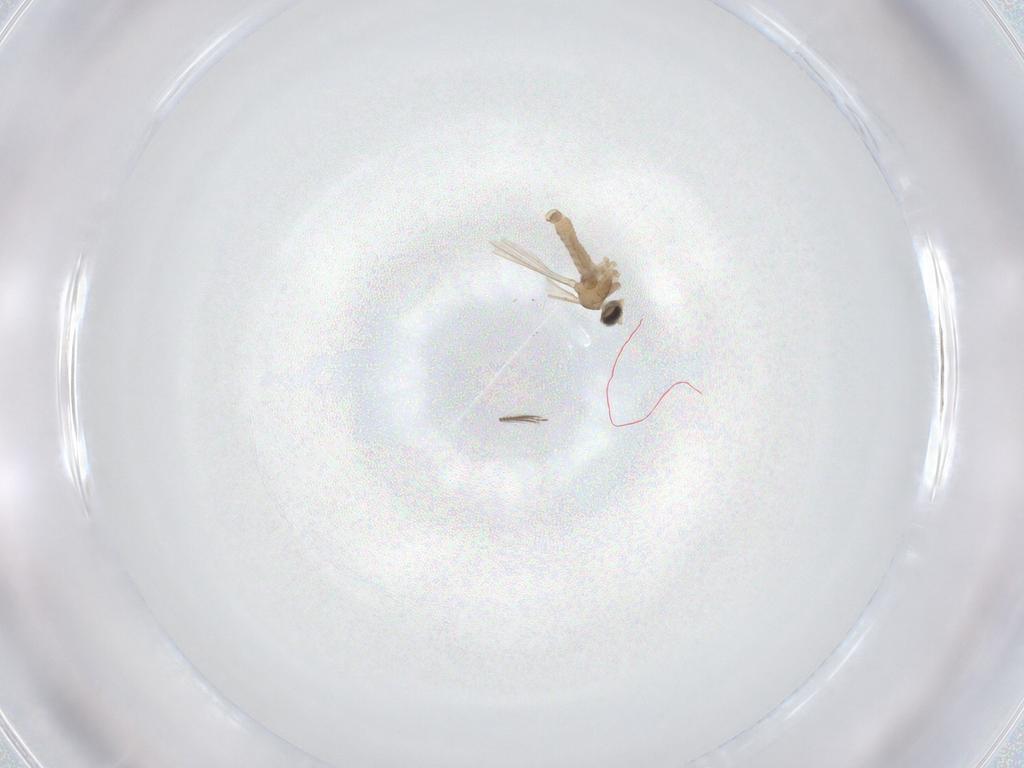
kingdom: Animalia
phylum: Arthropoda
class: Insecta
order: Diptera
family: Cecidomyiidae
